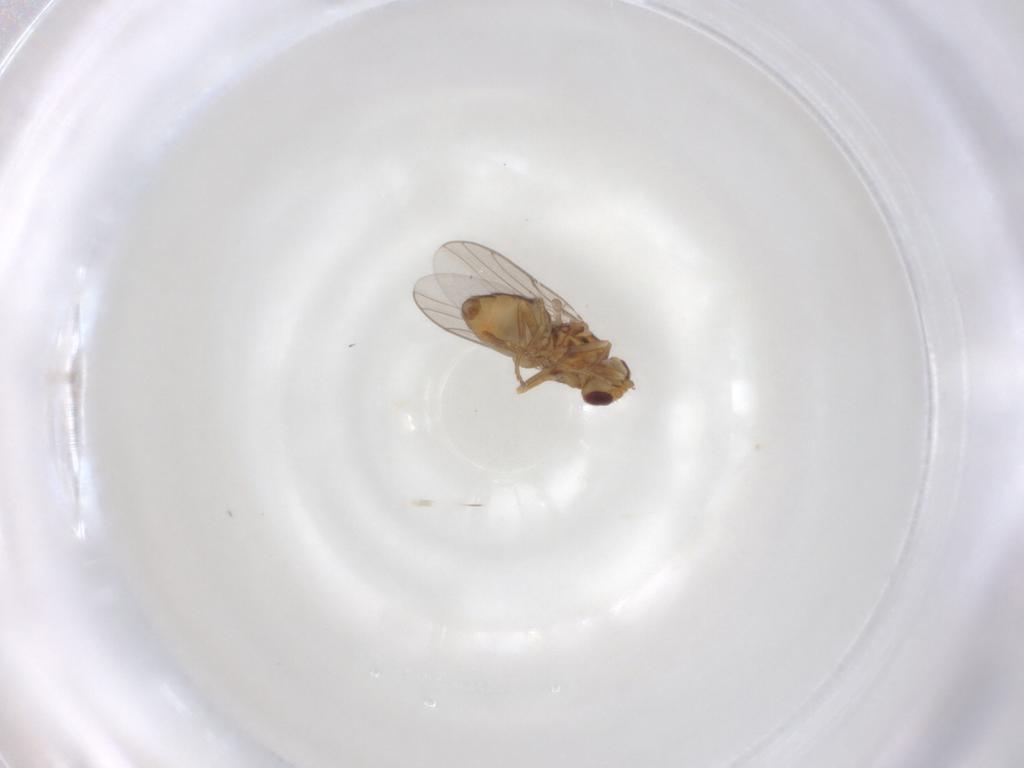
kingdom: Animalia
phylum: Arthropoda
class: Insecta
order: Diptera
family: Chloropidae
